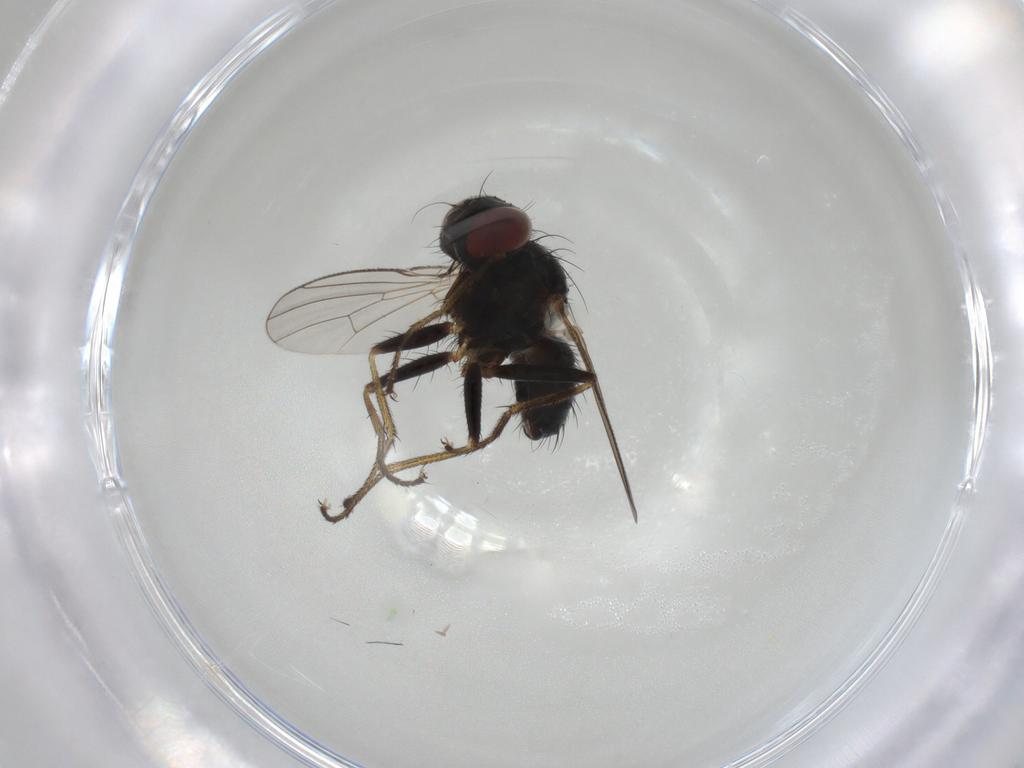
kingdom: Animalia
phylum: Arthropoda
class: Insecta
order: Diptera
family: Muscidae
